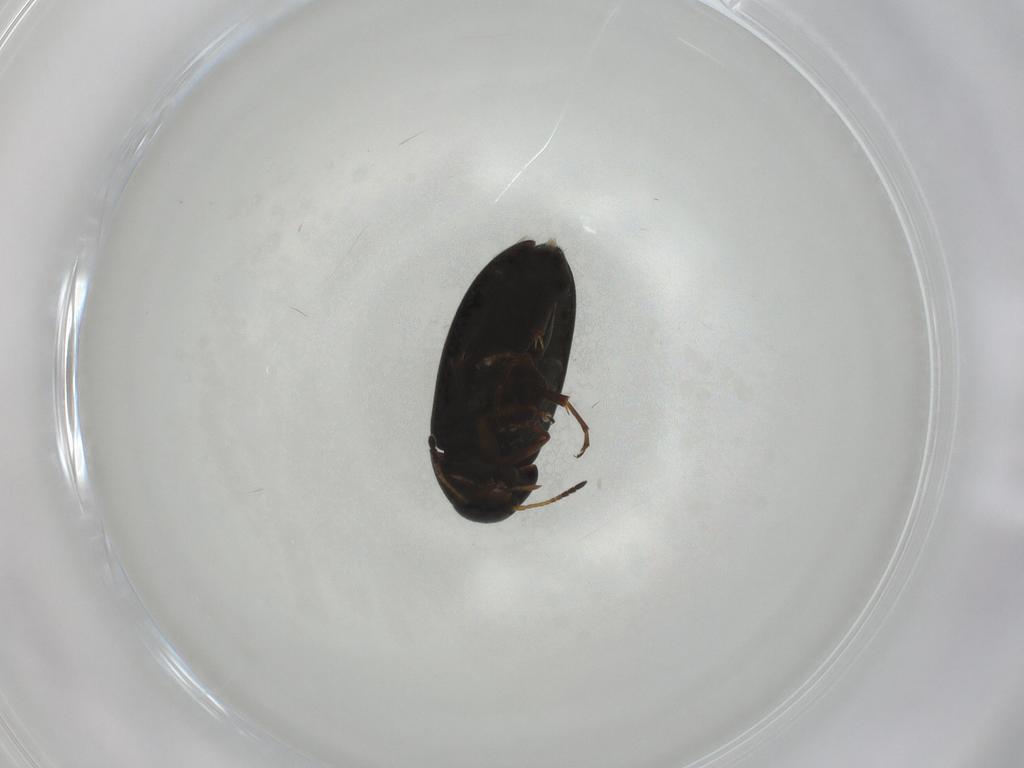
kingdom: Animalia
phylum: Arthropoda
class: Insecta
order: Coleoptera
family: Scraptiidae
